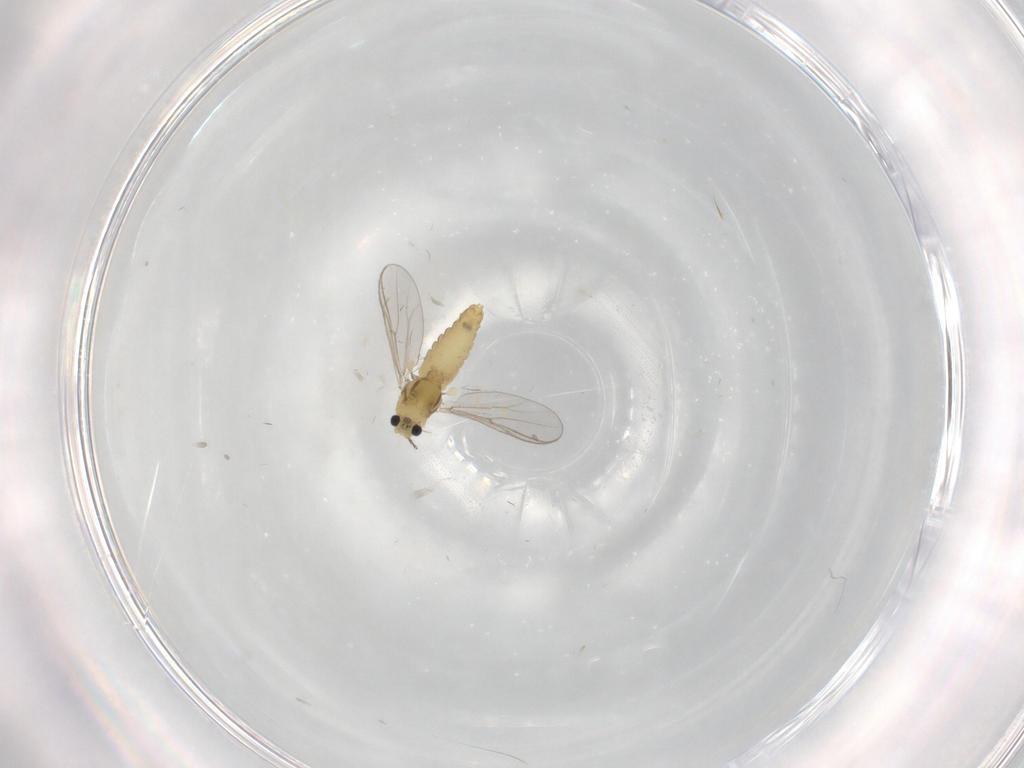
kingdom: Animalia
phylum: Arthropoda
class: Insecta
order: Diptera
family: Chironomidae
